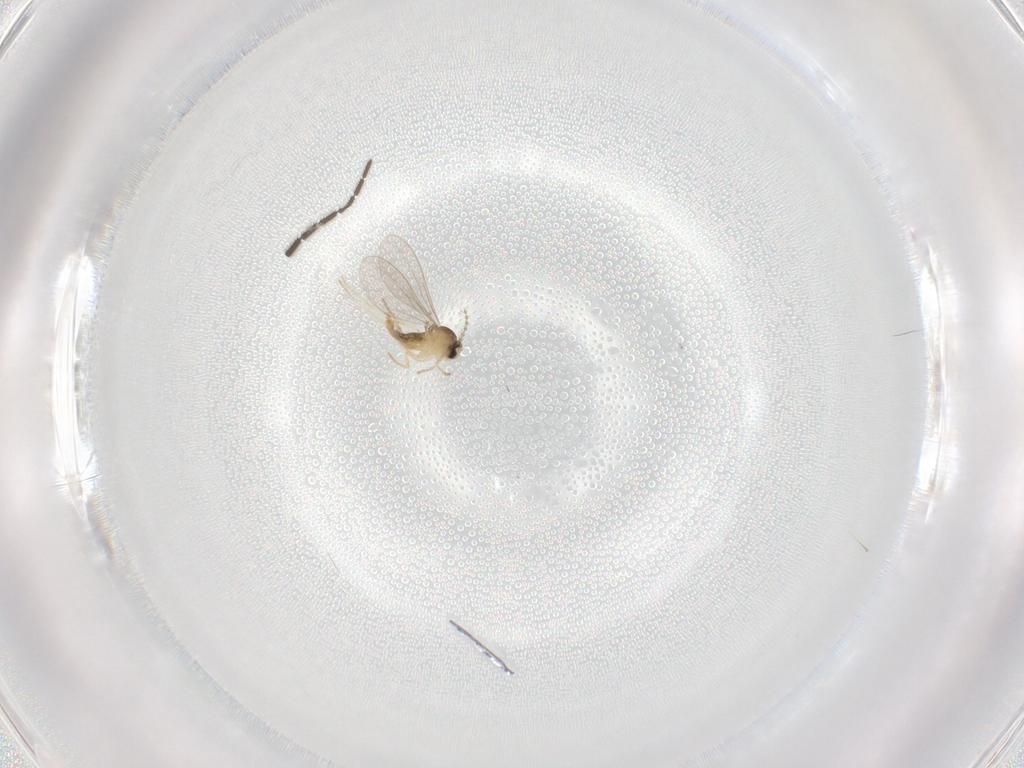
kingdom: Animalia
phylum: Arthropoda
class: Insecta
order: Diptera
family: Sciaridae
